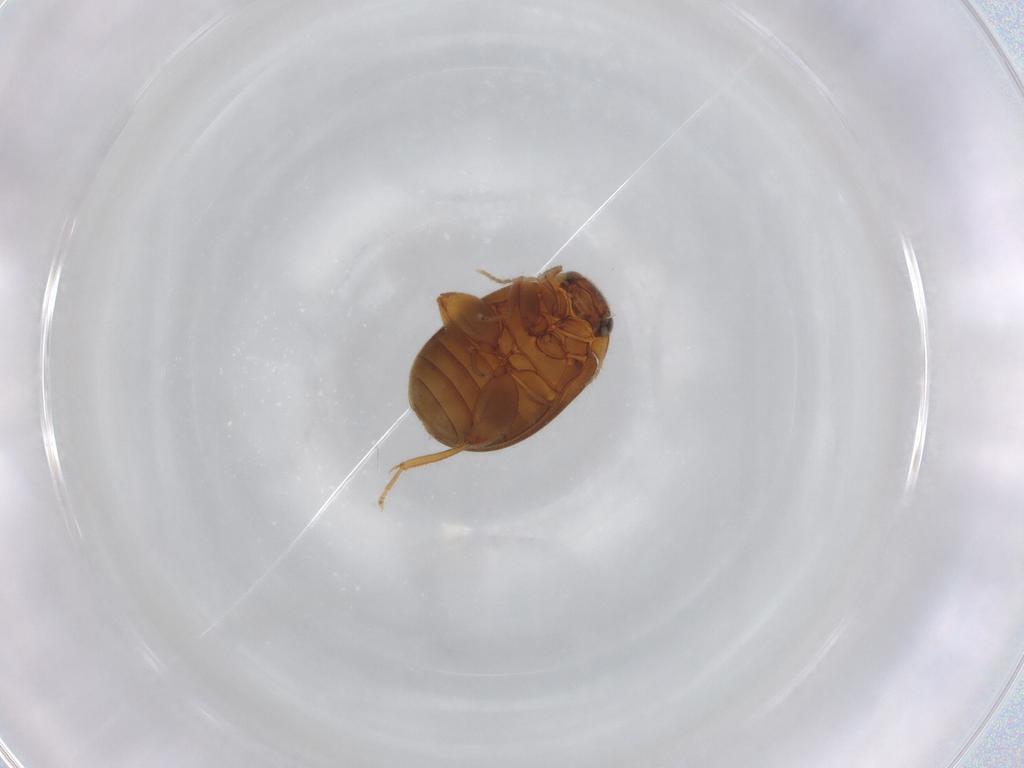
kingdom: Animalia
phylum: Arthropoda
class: Insecta
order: Coleoptera
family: Scirtidae
